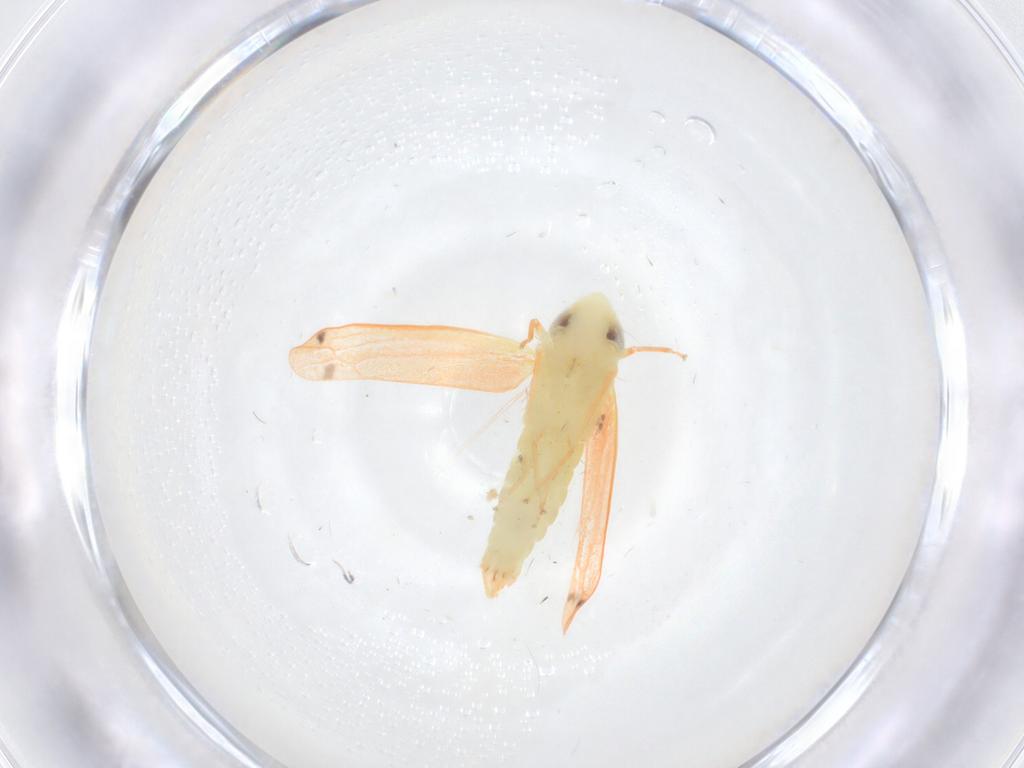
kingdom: Animalia
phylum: Arthropoda
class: Insecta
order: Hemiptera
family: Cicadellidae
